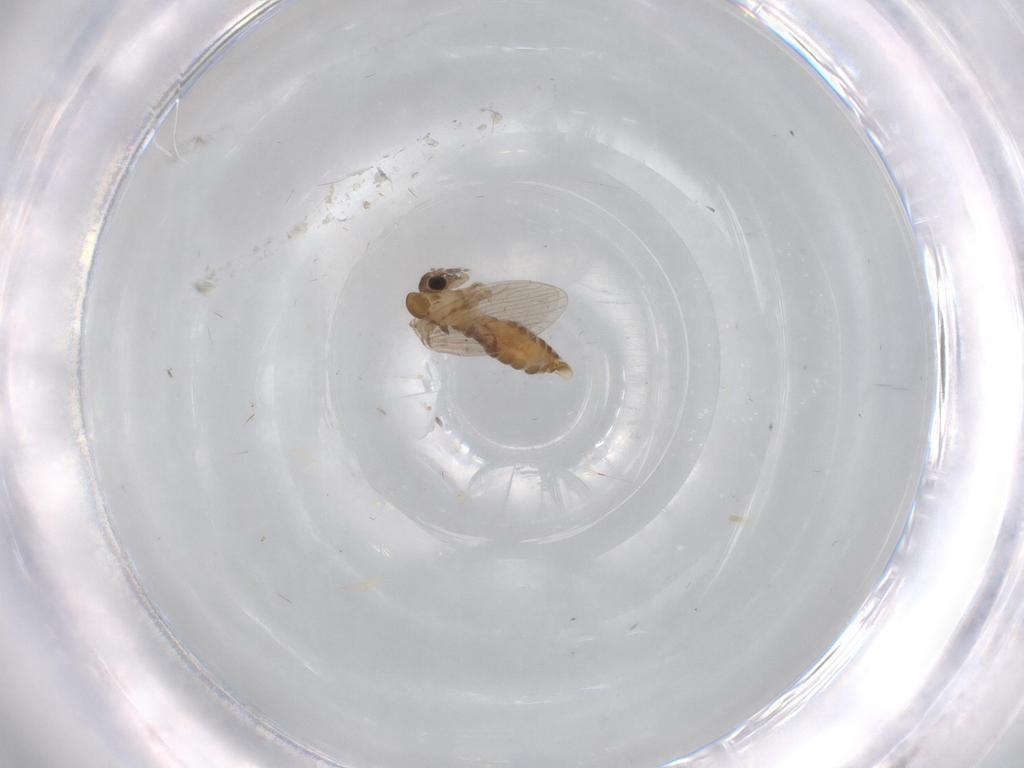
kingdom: Animalia
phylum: Arthropoda
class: Insecta
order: Diptera
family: Psychodidae
